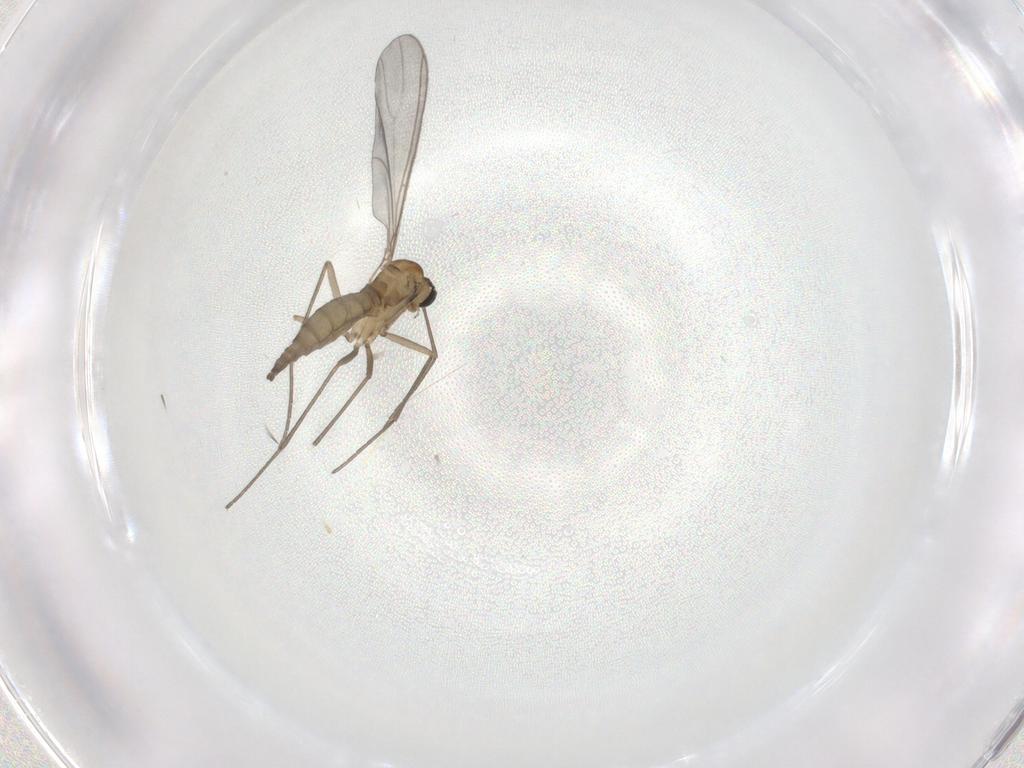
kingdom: Animalia
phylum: Arthropoda
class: Insecta
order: Diptera
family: Sciaridae
